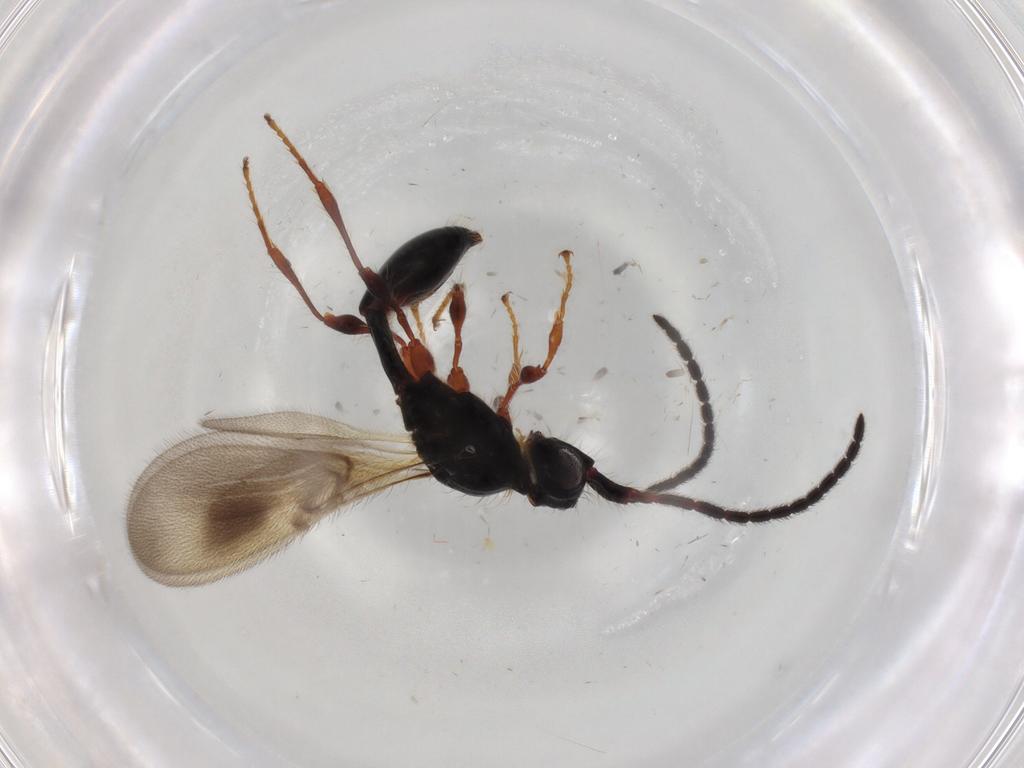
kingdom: Animalia
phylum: Arthropoda
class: Insecta
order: Hymenoptera
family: Diapriidae
